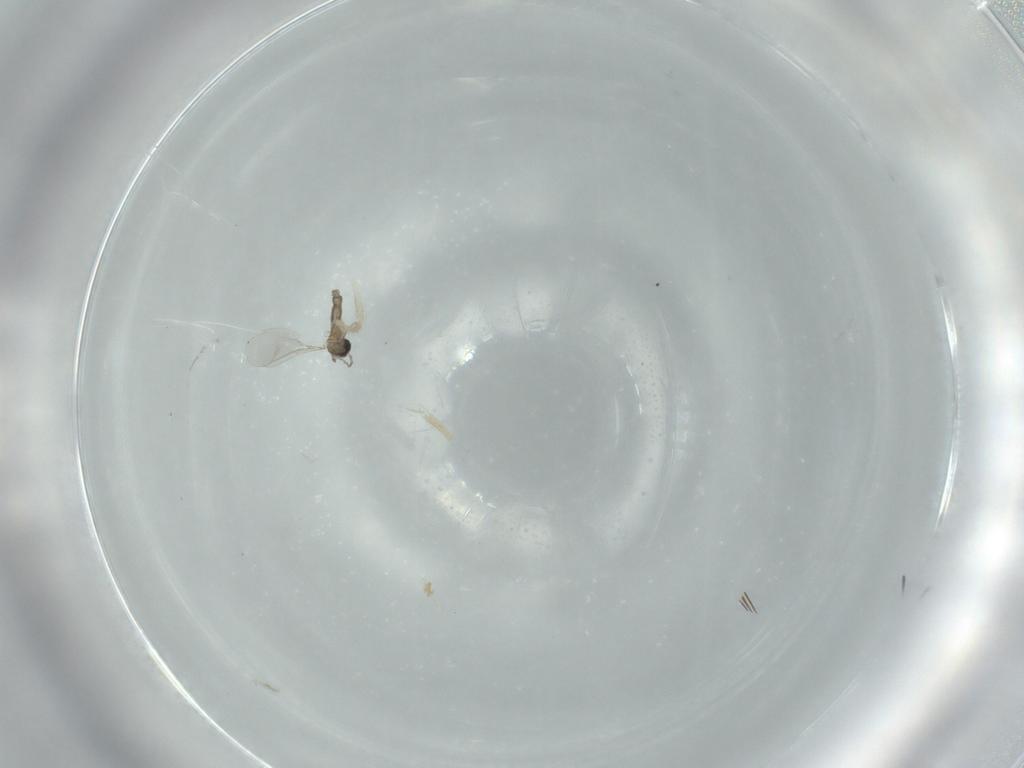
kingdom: Animalia
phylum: Arthropoda
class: Insecta
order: Diptera
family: Cecidomyiidae
